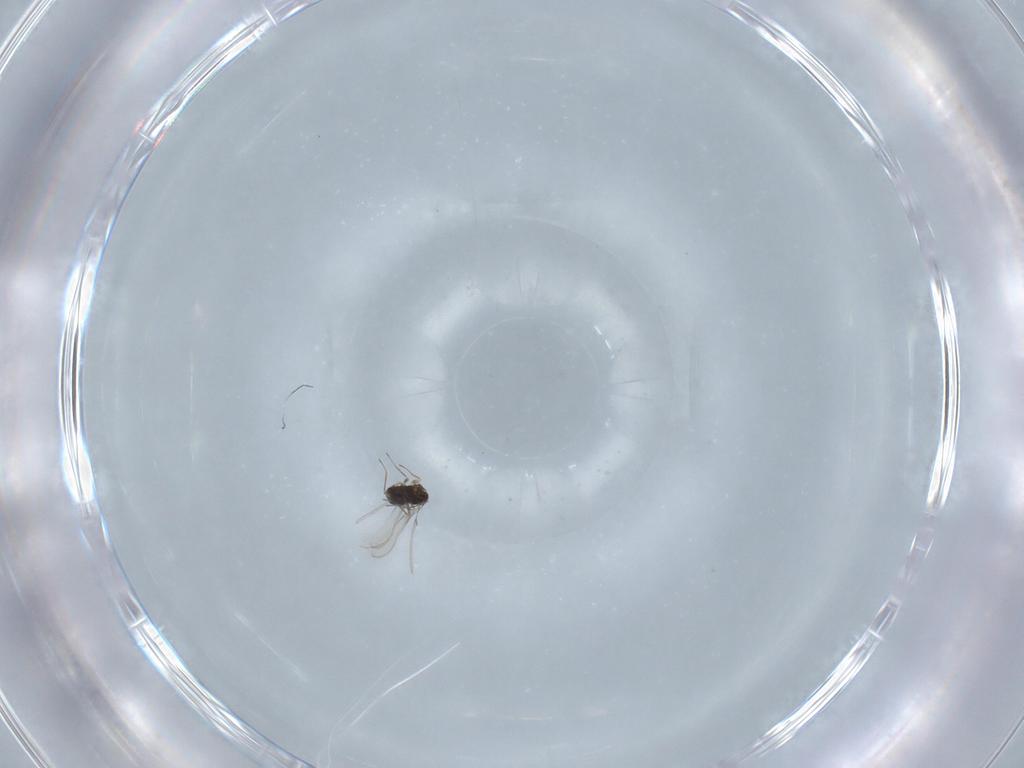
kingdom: Animalia
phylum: Arthropoda
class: Insecta
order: Hymenoptera
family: Mymaridae
